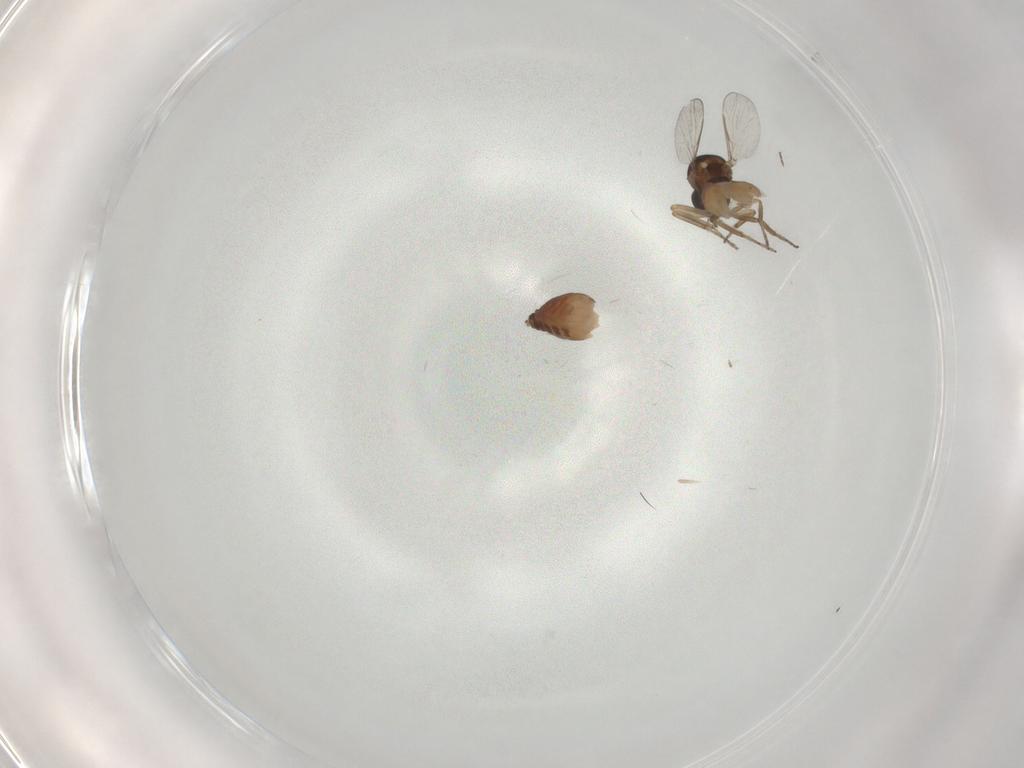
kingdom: Animalia
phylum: Arthropoda
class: Insecta
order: Diptera
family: Ceratopogonidae
